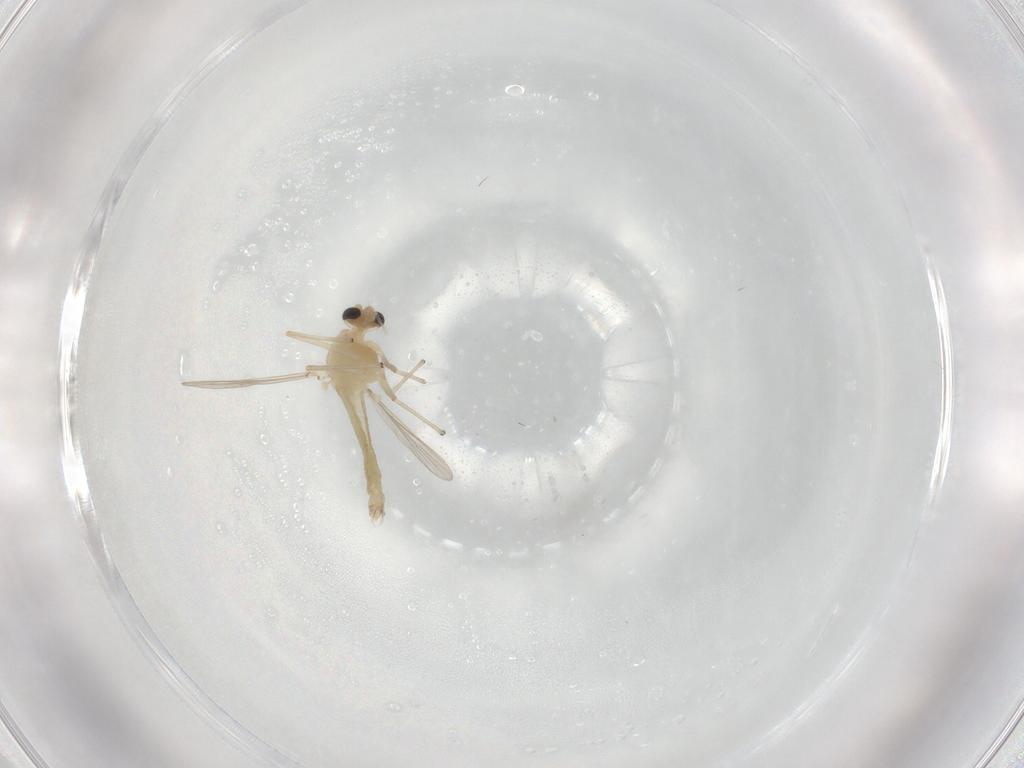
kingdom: Animalia
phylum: Arthropoda
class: Insecta
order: Diptera
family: Chironomidae
